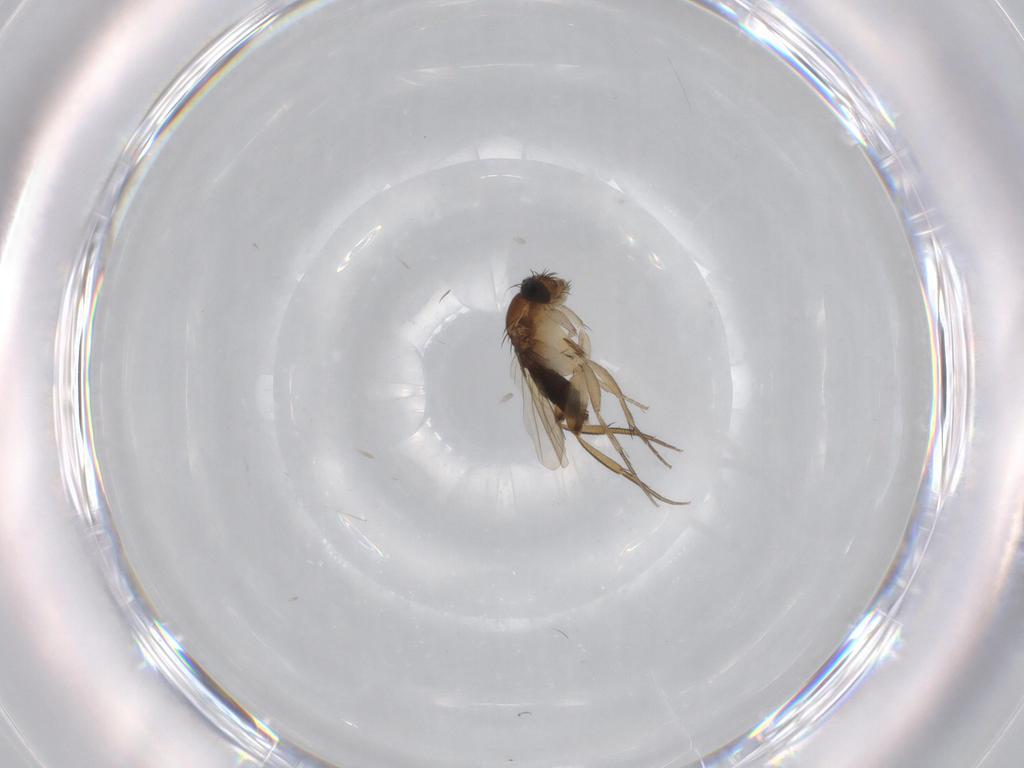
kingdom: Animalia
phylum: Arthropoda
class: Insecta
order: Diptera
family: Phoridae
